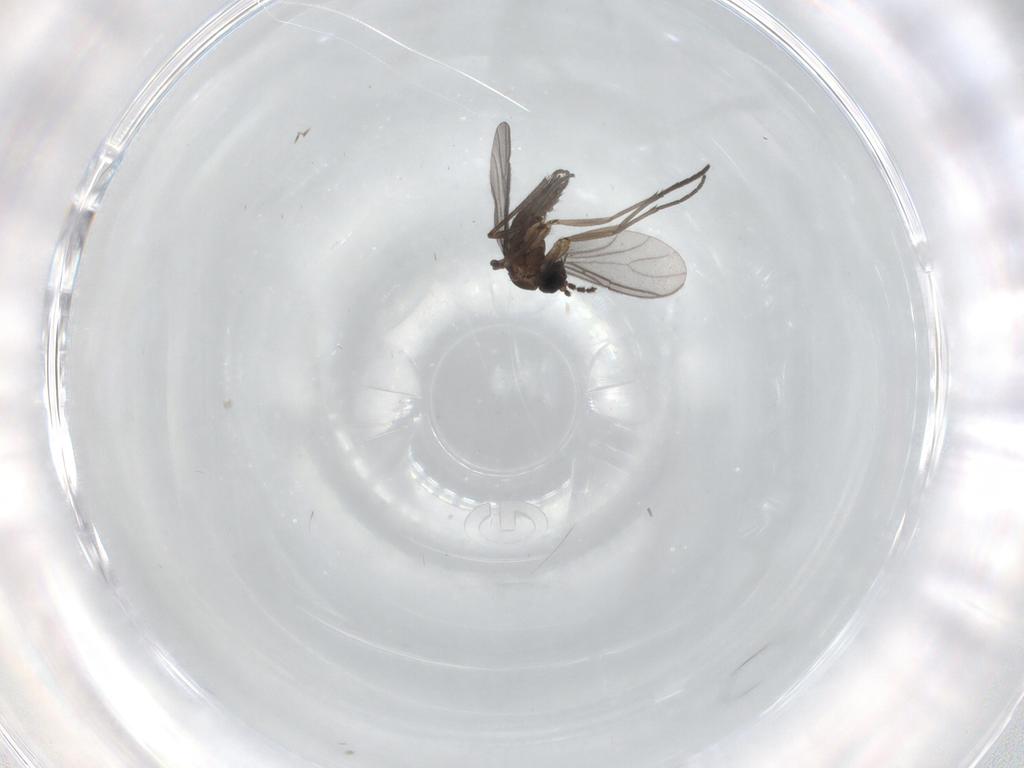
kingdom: Animalia
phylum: Arthropoda
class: Insecta
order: Diptera
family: Sciaridae
